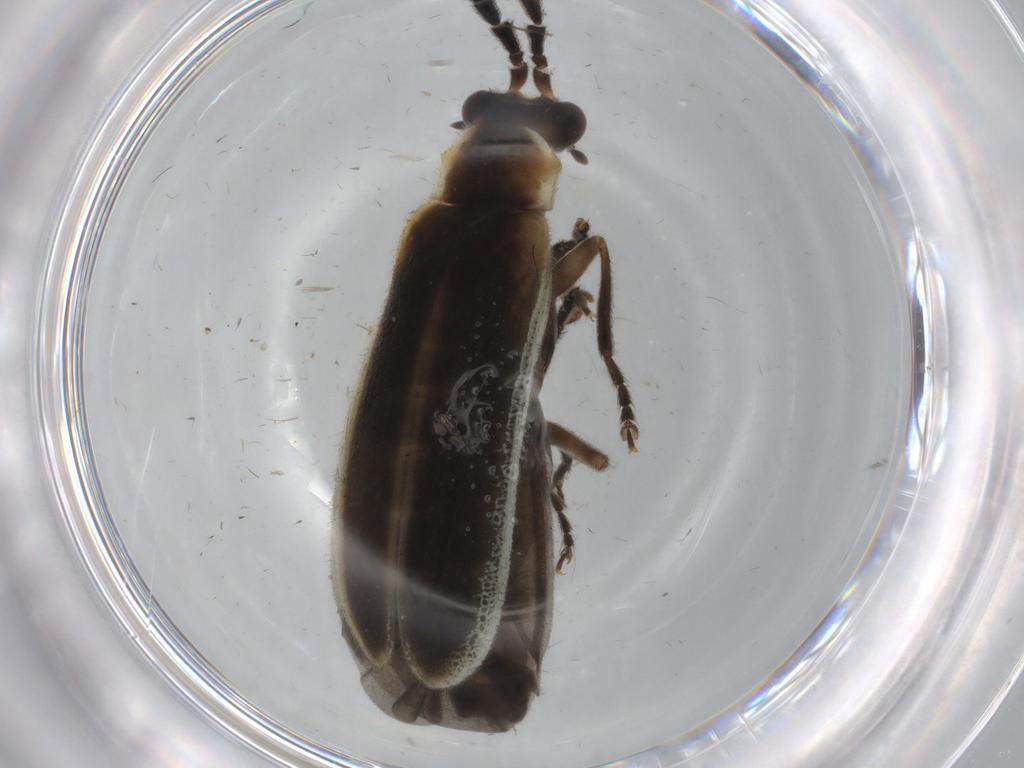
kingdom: Animalia
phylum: Arthropoda
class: Insecta
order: Coleoptera
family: Cantharidae
